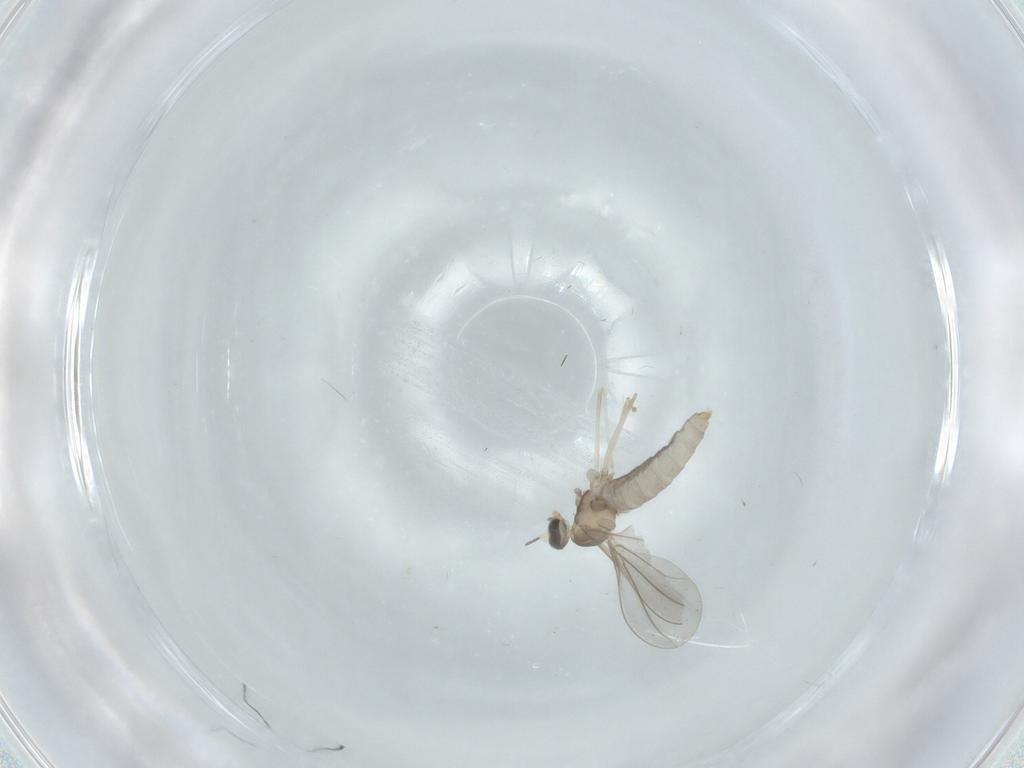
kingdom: Animalia
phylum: Arthropoda
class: Insecta
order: Diptera
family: Cecidomyiidae
